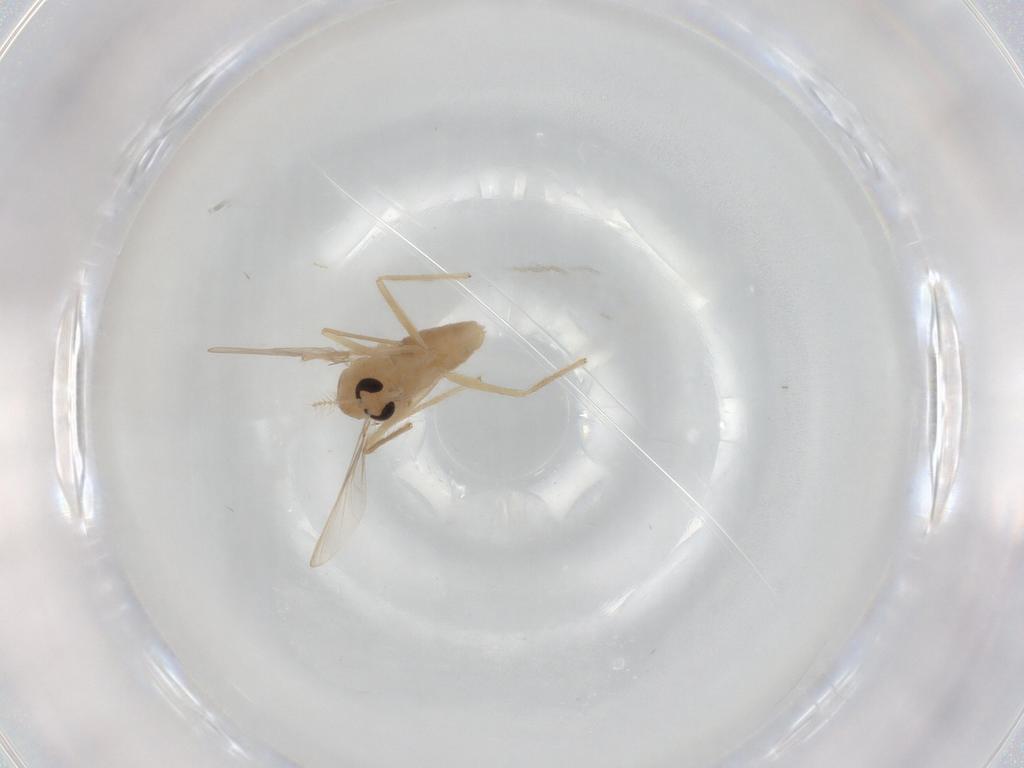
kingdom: Animalia
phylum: Arthropoda
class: Insecta
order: Diptera
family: Chironomidae
